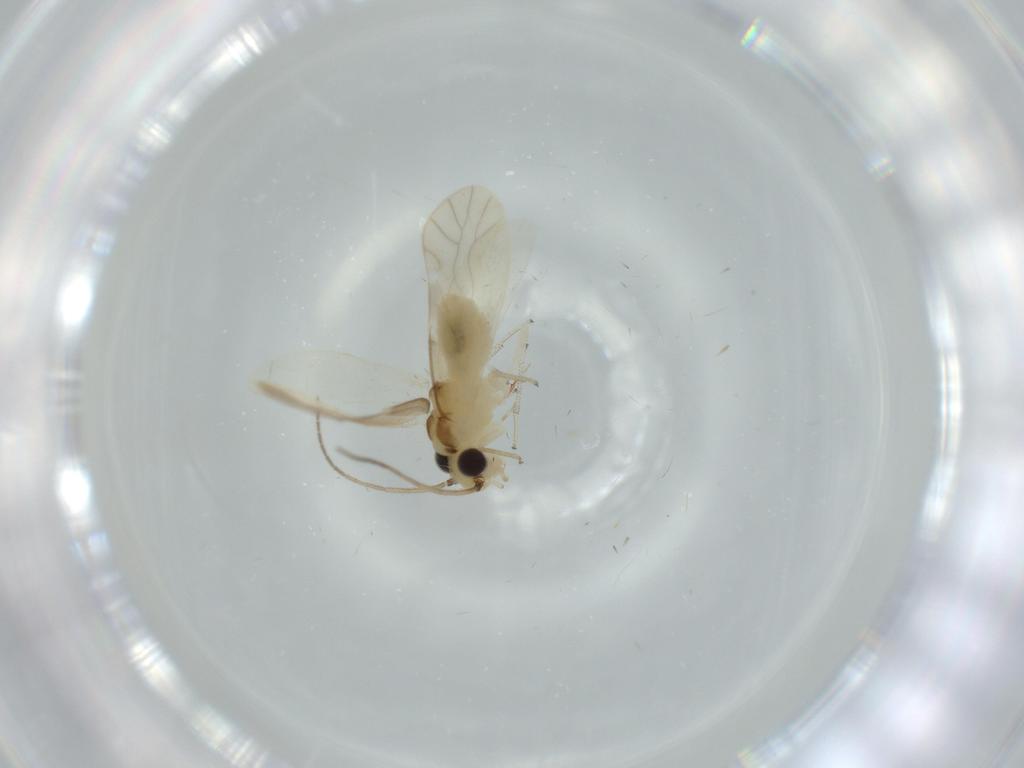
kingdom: Animalia
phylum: Arthropoda
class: Insecta
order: Psocodea
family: Caeciliusidae
